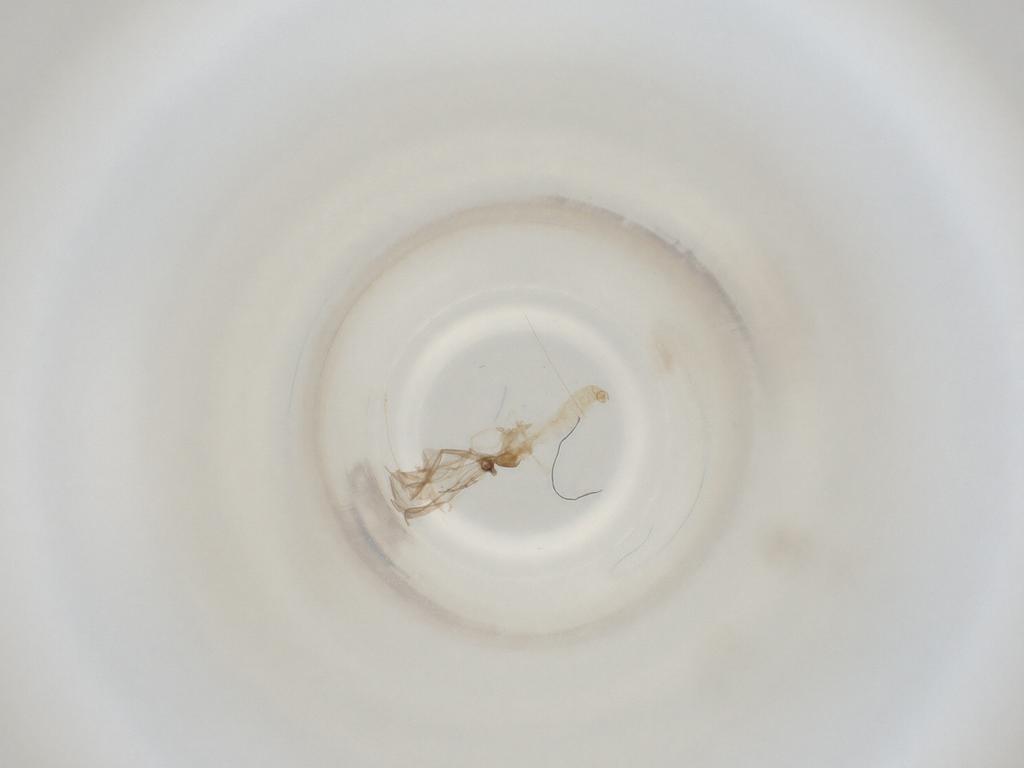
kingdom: Animalia
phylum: Arthropoda
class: Insecta
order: Diptera
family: Cecidomyiidae
